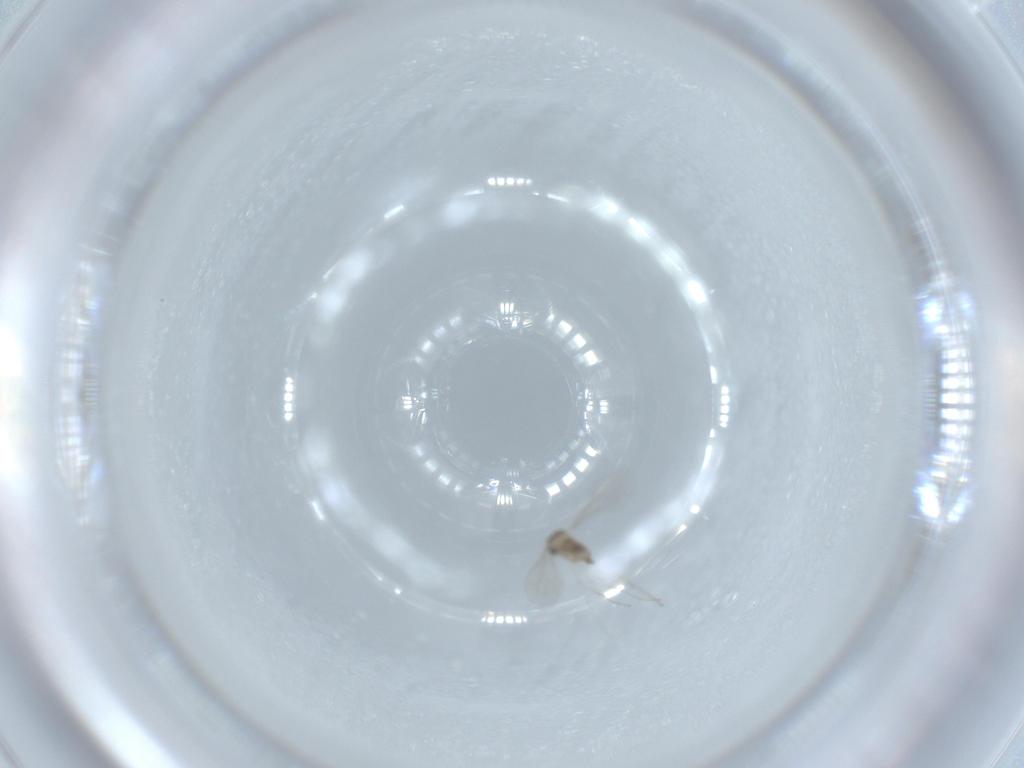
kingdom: Animalia
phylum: Arthropoda
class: Insecta
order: Diptera
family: Cecidomyiidae
